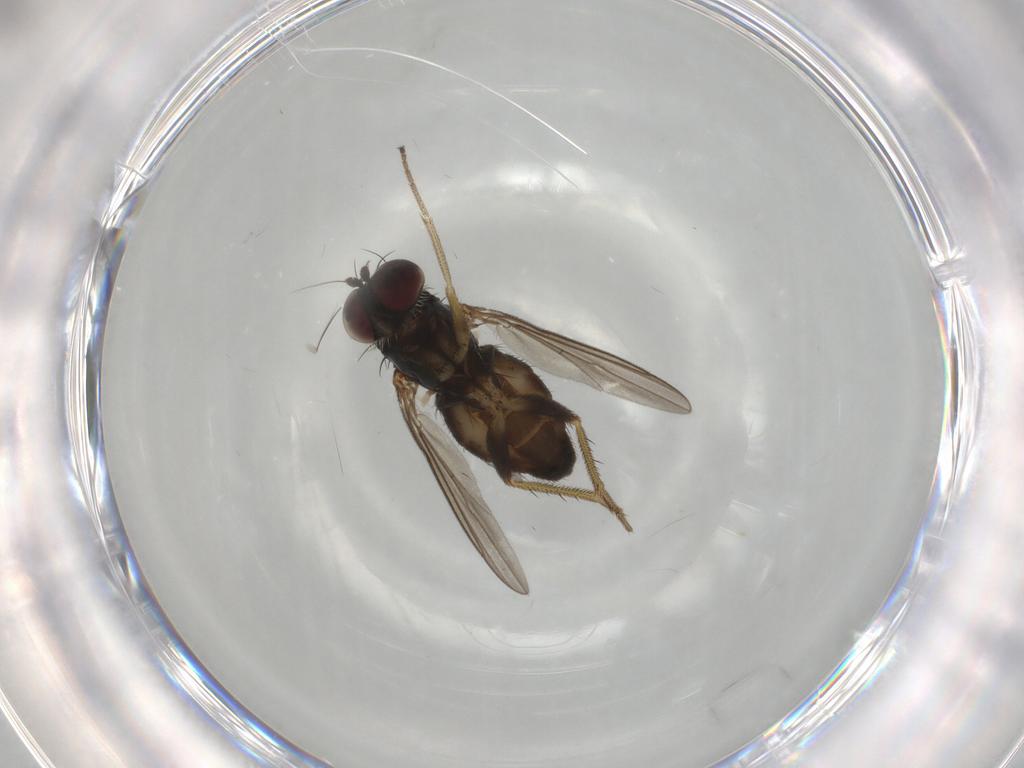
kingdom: Animalia
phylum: Arthropoda
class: Insecta
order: Diptera
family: Dolichopodidae
